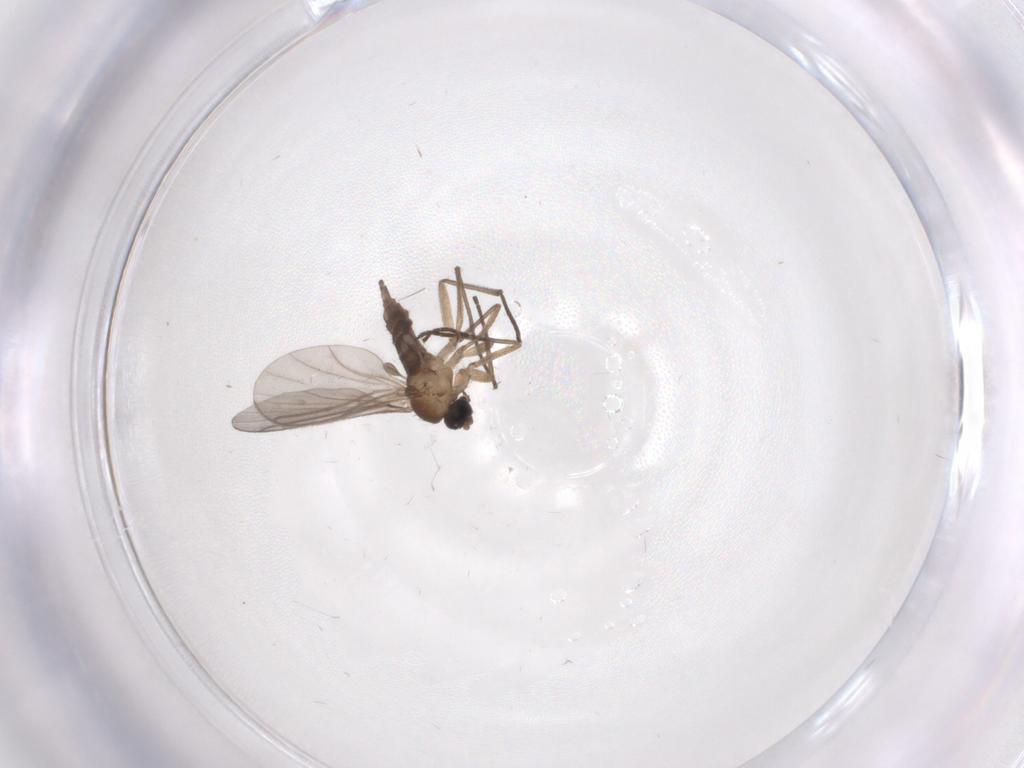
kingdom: Animalia
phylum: Arthropoda
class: Insecta
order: Diptera
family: Sciaridae
